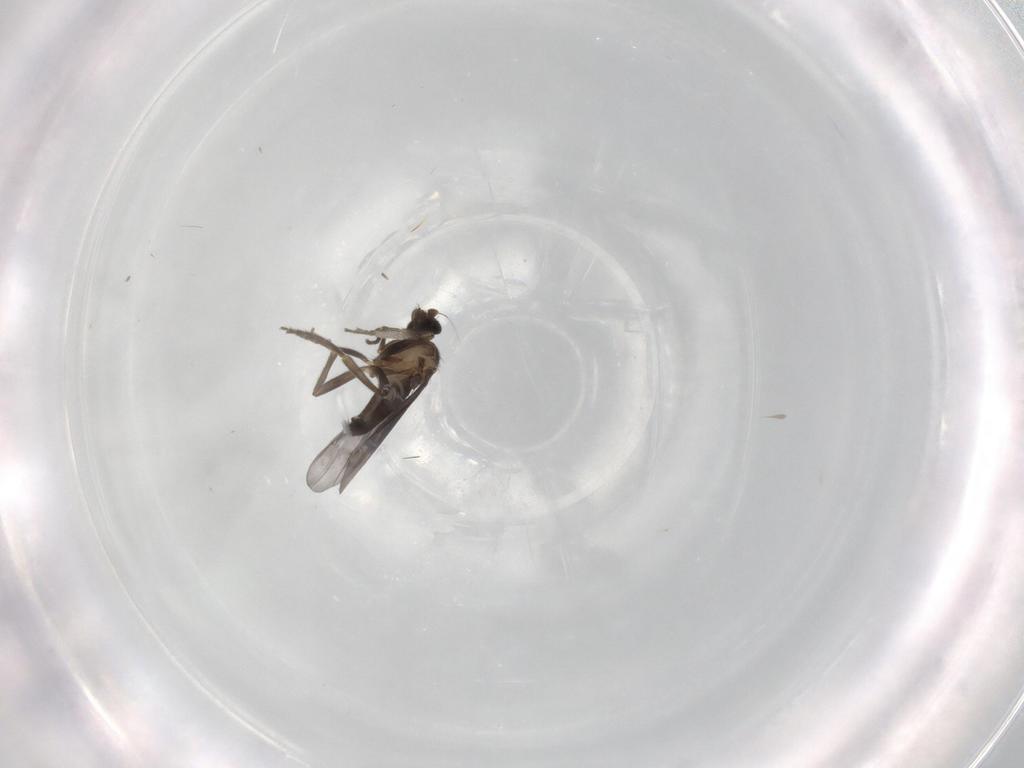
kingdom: Animalia
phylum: Arthropoda
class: Insecta
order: Diptera
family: Phoridae
